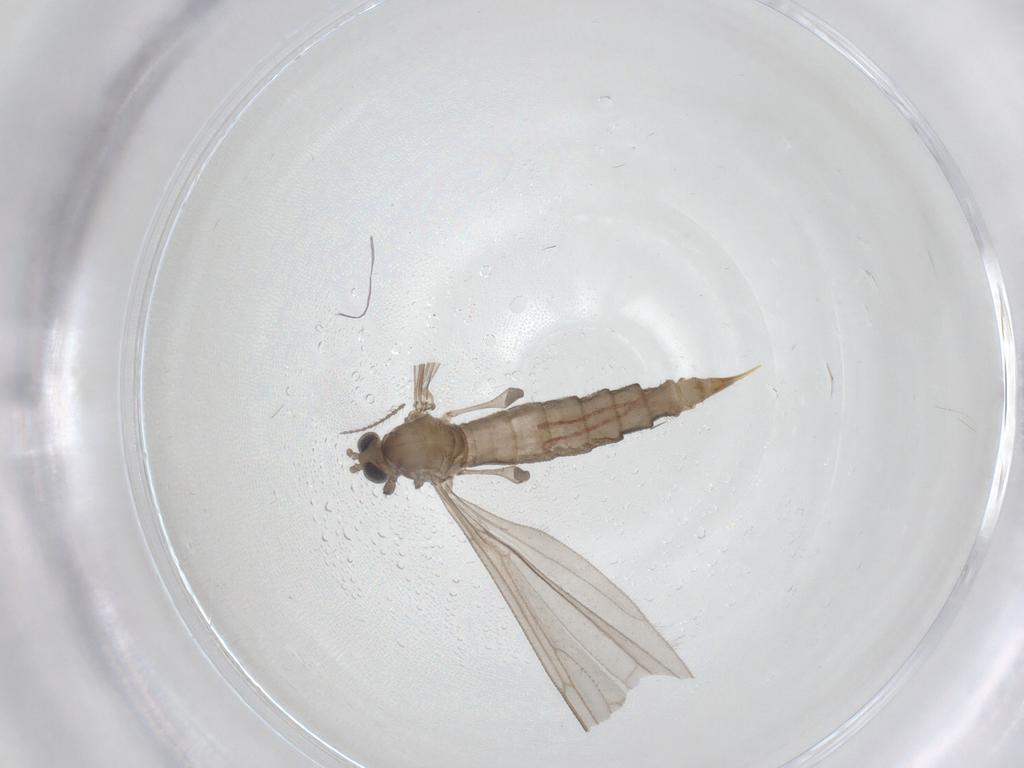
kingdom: Animalia
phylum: Arthropoda
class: Insecta
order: Diptera
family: Limoniidae
